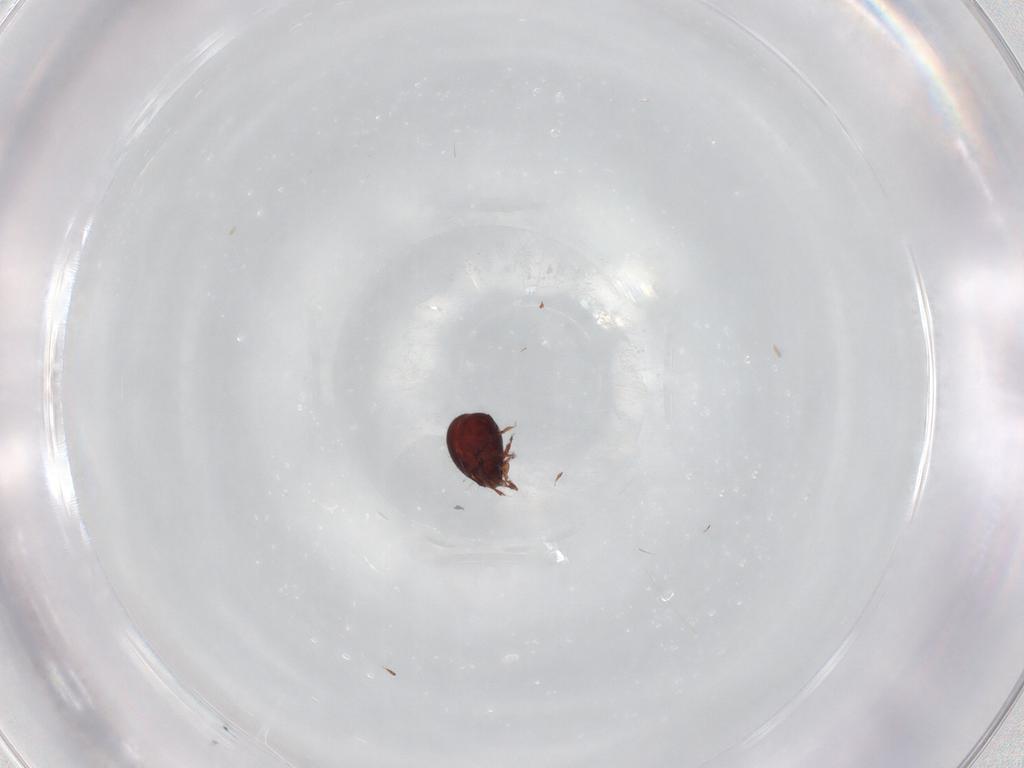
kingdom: Animalia
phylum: Arthropoda
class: Arachnida
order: Sarcoptiformes
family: Humerobatidae
